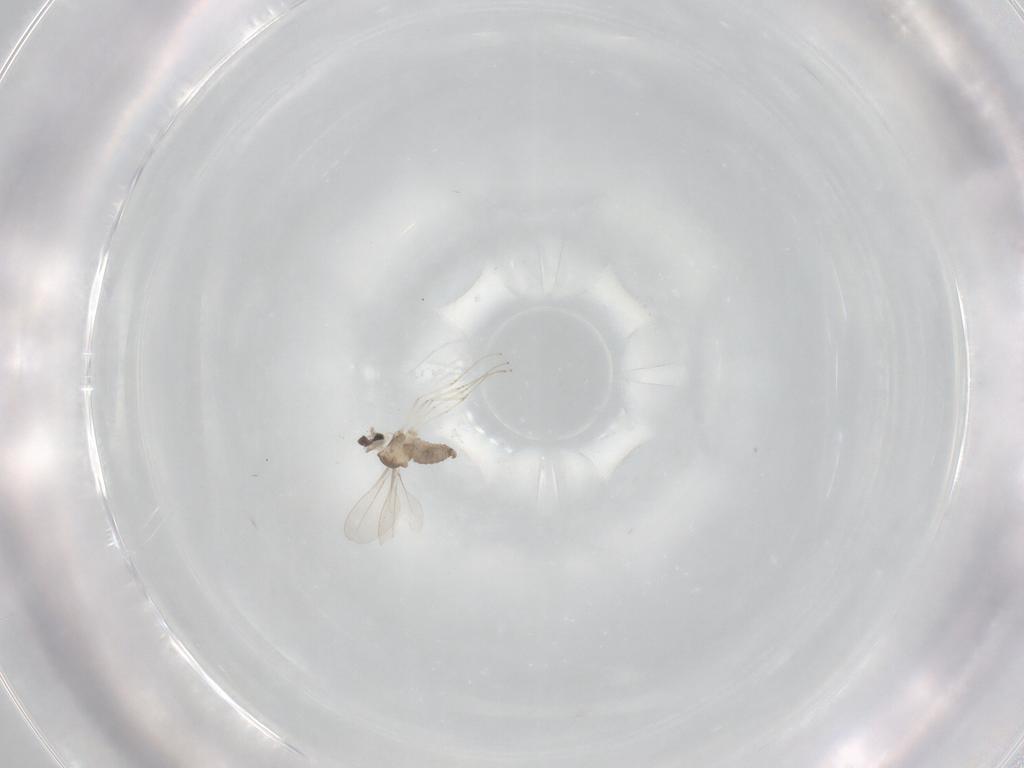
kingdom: Animalia
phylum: Arthropoda
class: Insecta
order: Diptera
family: Cecidomyiidae
